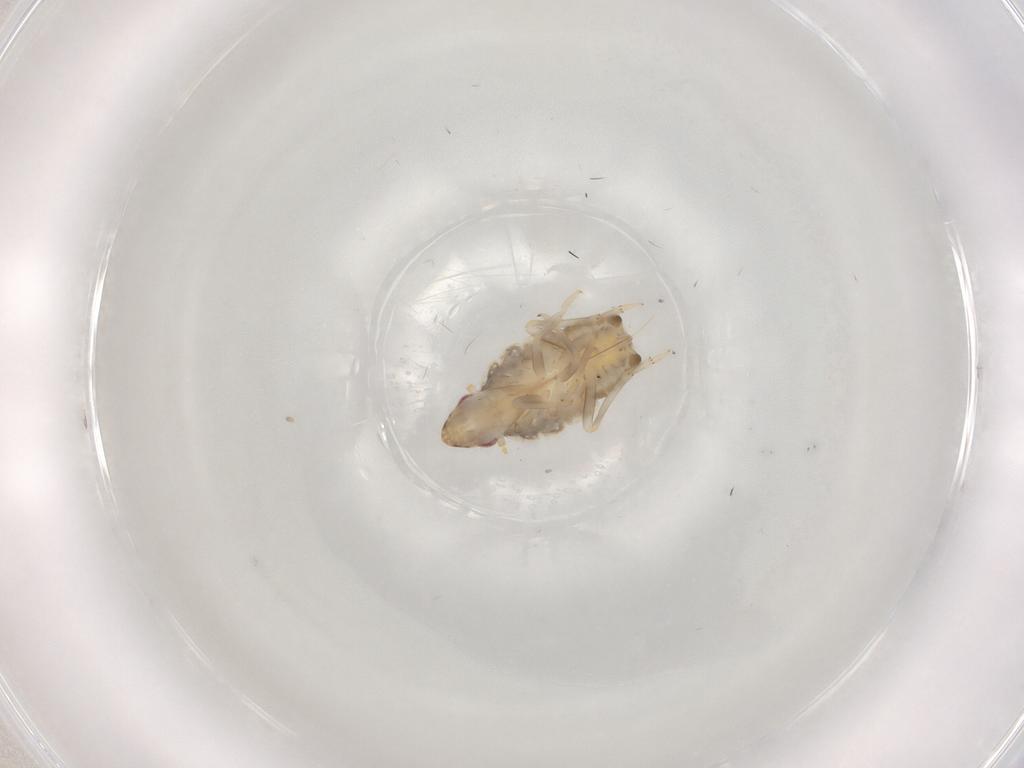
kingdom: Animalia
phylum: Arthropoda
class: Insecta
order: Hemiptera
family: Fulgoroidea_incertae_sedis
